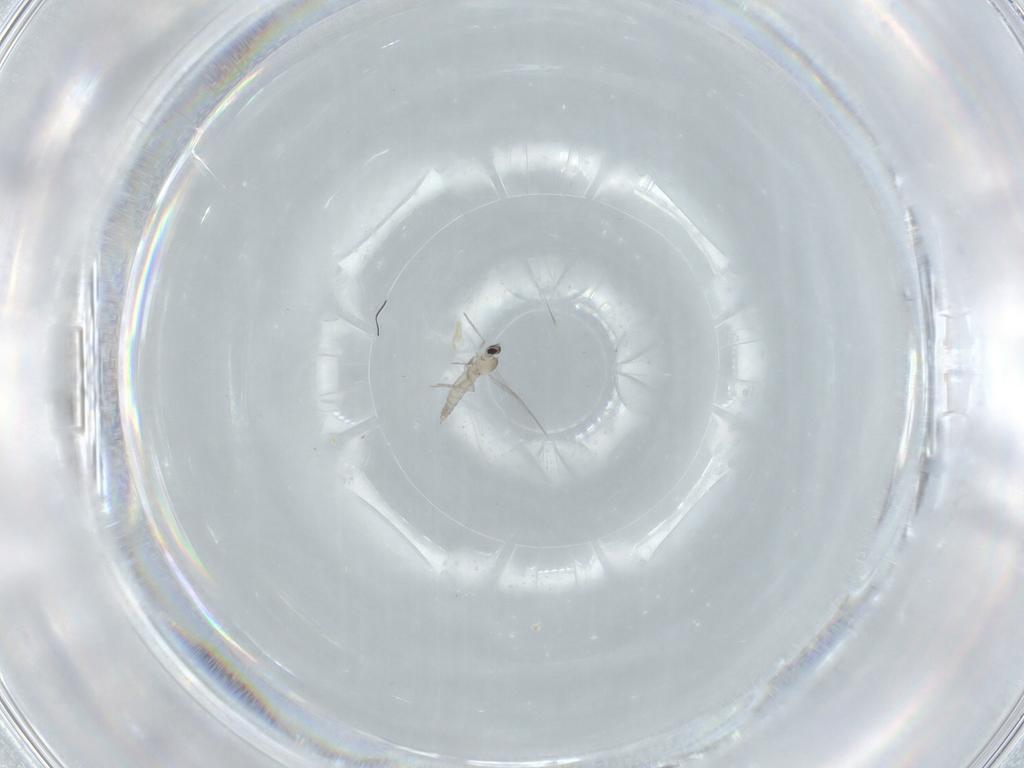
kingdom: Animalia
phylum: Arthropoda
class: Insecta
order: Diptera
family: Cecidomyiidae
